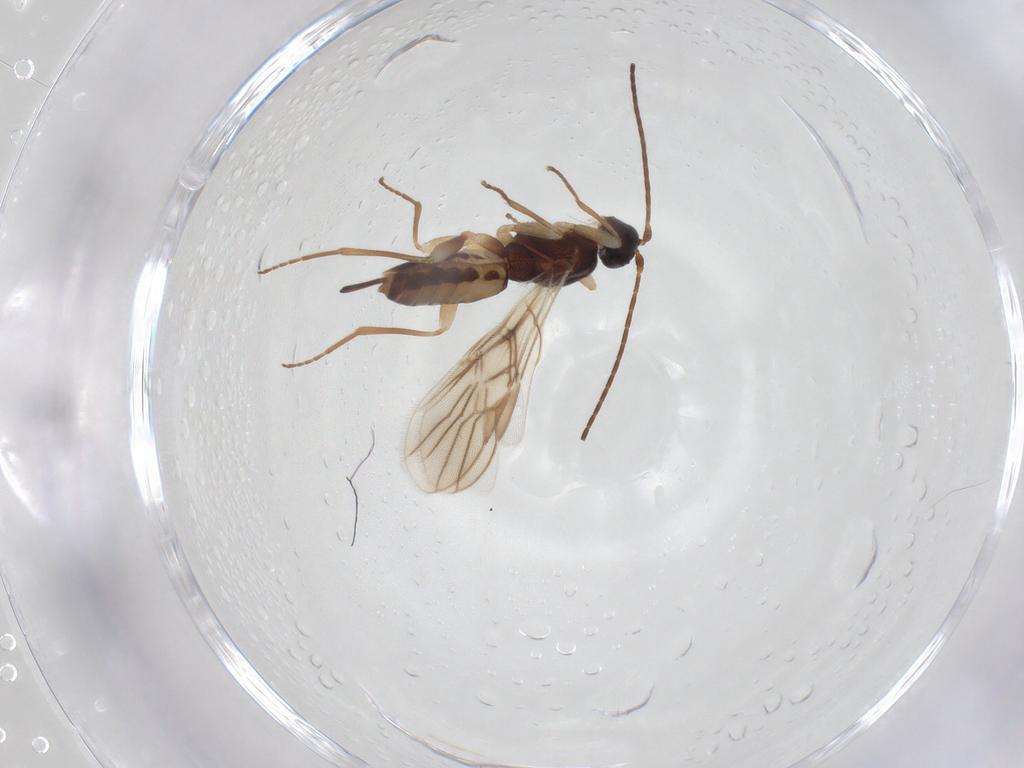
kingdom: Animalia
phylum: Arthropoda
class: Insecta
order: Hymenoptera
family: Braconidae
